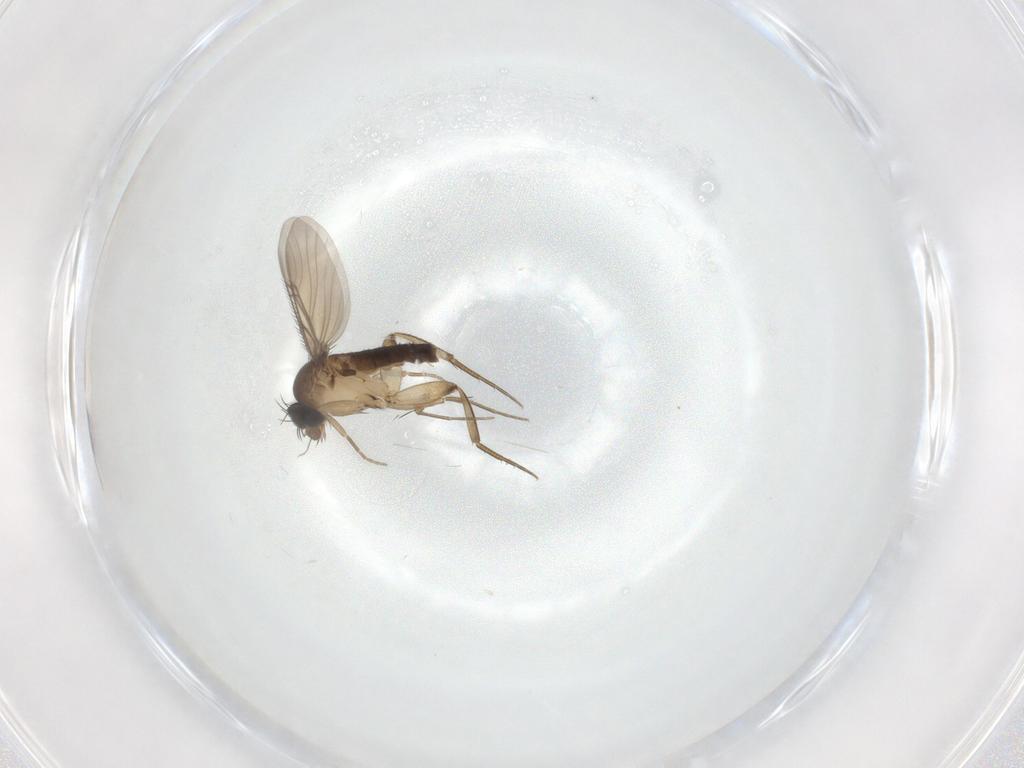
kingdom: Animalia
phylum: Arthropoda
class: Insecta
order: Diptera
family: Phoridae
